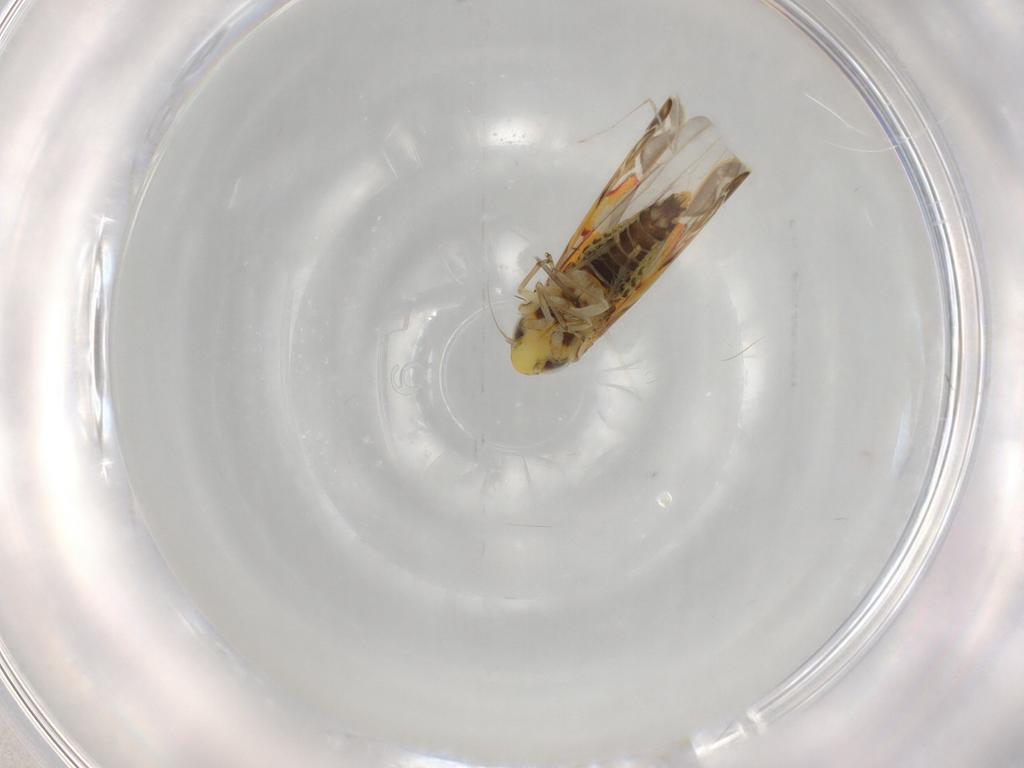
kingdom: Animalia
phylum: Arthropoda
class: Insecta
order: Hemiptera
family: Cicadellidae
